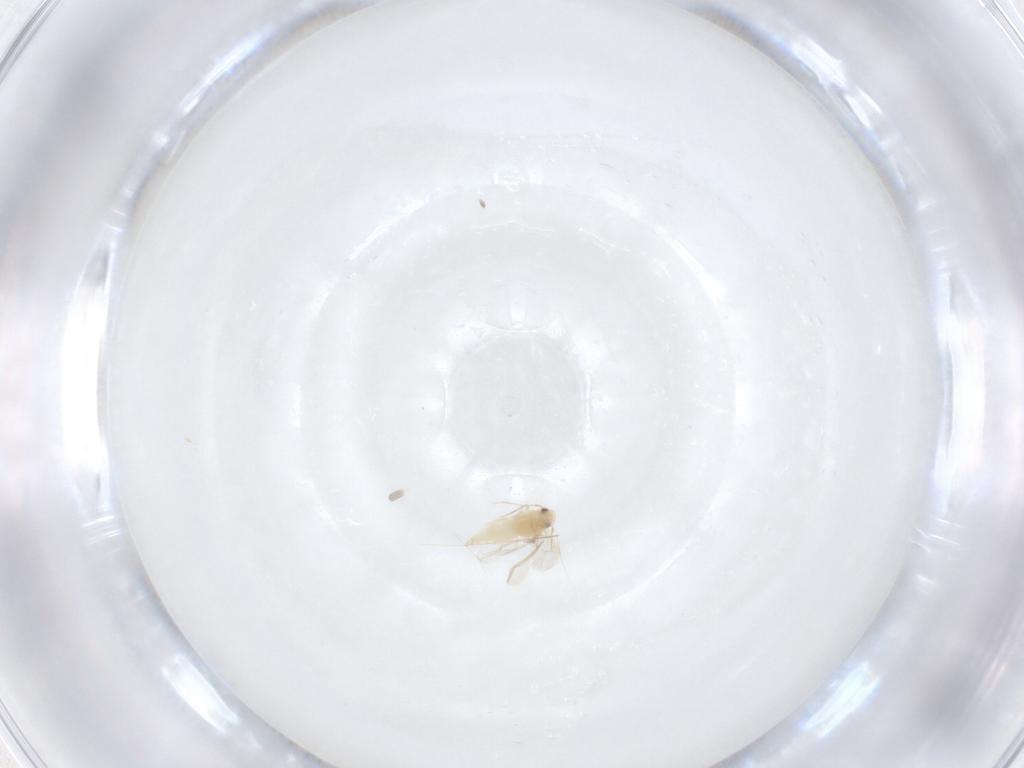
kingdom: Animalia
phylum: Arthropoda
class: Insecta
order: Hemiptera
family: Aleyrodidae
